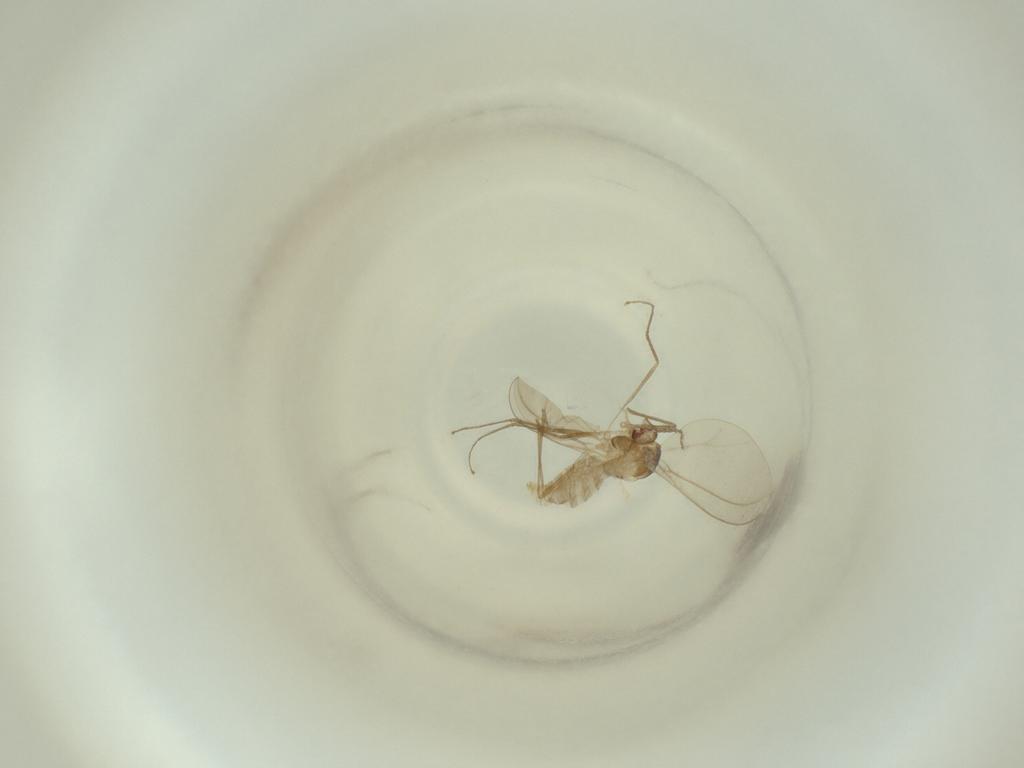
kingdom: Animalia
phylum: Arthropoda
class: Insecta
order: Diptera
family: Cecidomyiidae
